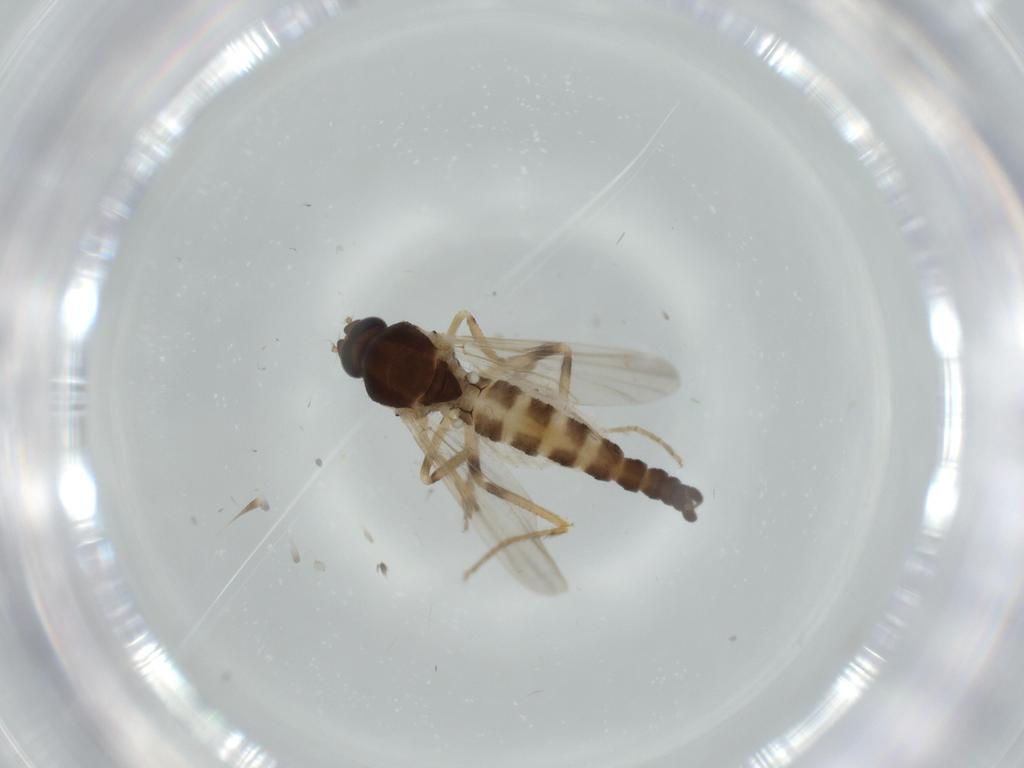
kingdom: Animalia
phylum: Arthropoda
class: Insecta
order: Diptera
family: Ceratopogonidae
